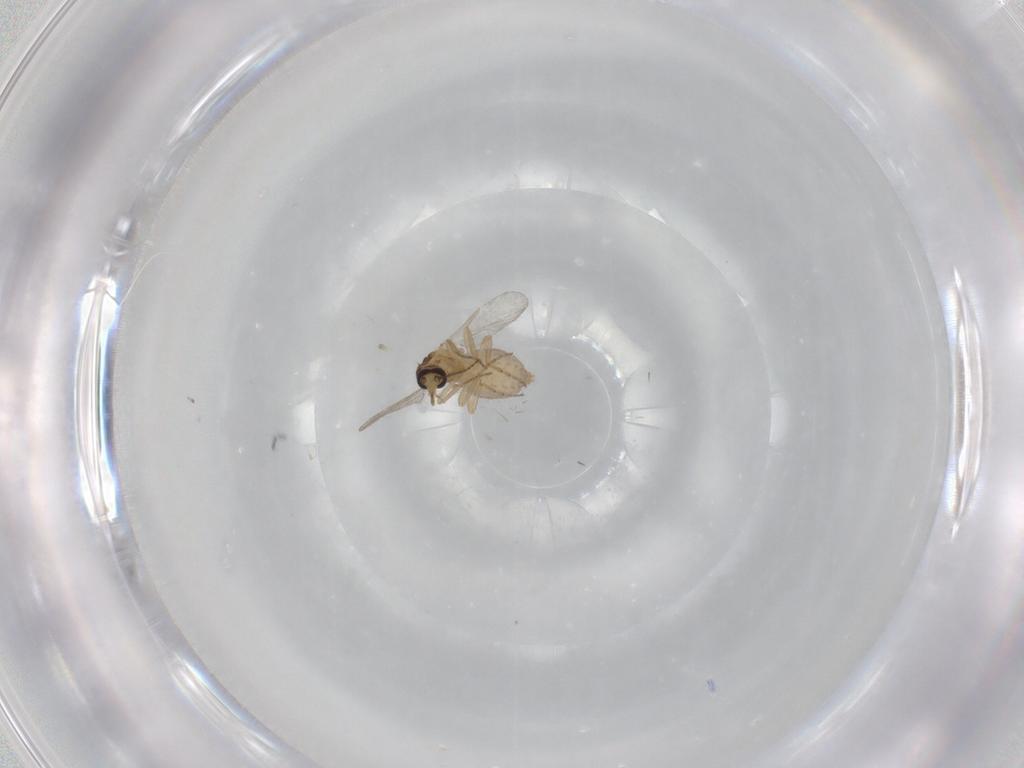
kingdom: Animalia
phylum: Arthropoda
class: Insecta
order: Diptera
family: Ceratopogonidae
